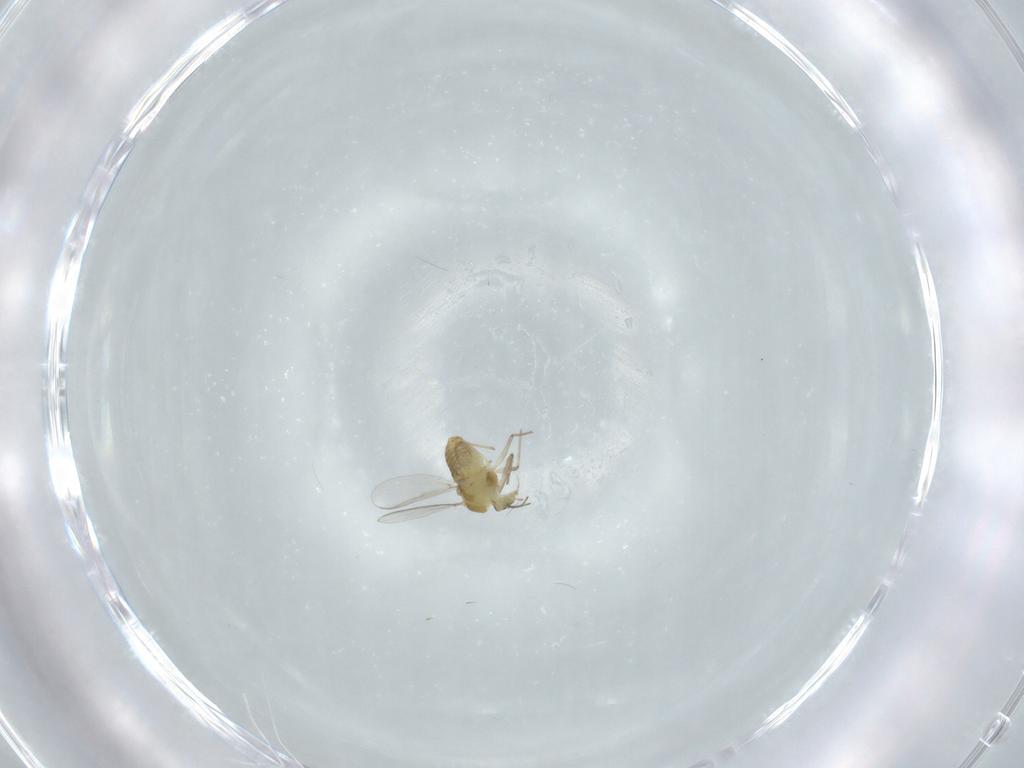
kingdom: Animalia
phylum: Arthropoda
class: Insecta
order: Diptera
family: Chironomidae
